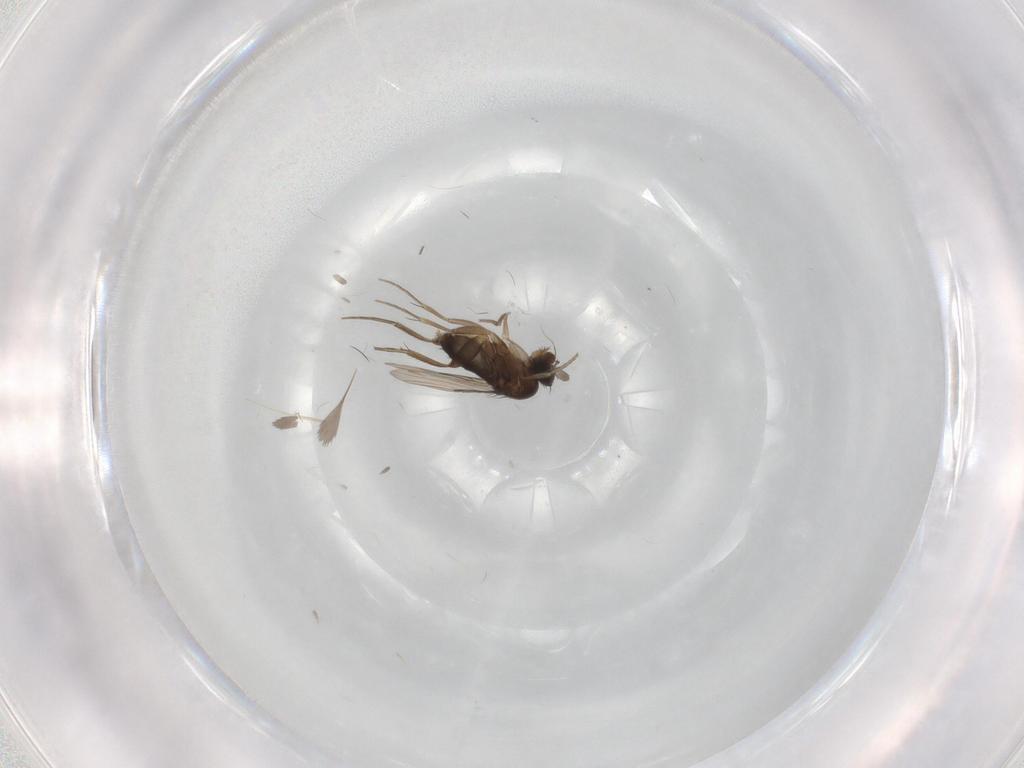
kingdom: Animalia
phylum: Arthropoda
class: Insecta
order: Diptera
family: Phoridae
